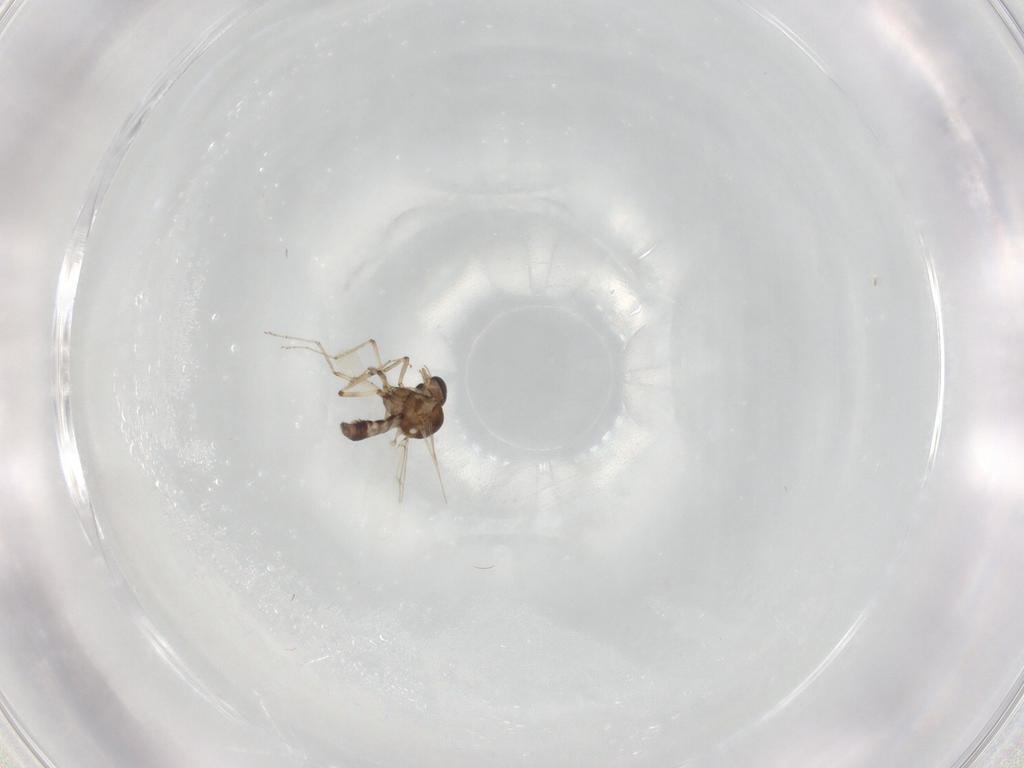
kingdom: Animalia
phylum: Arthropoda
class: Insecta
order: Diptera
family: Ceratopogonidae
